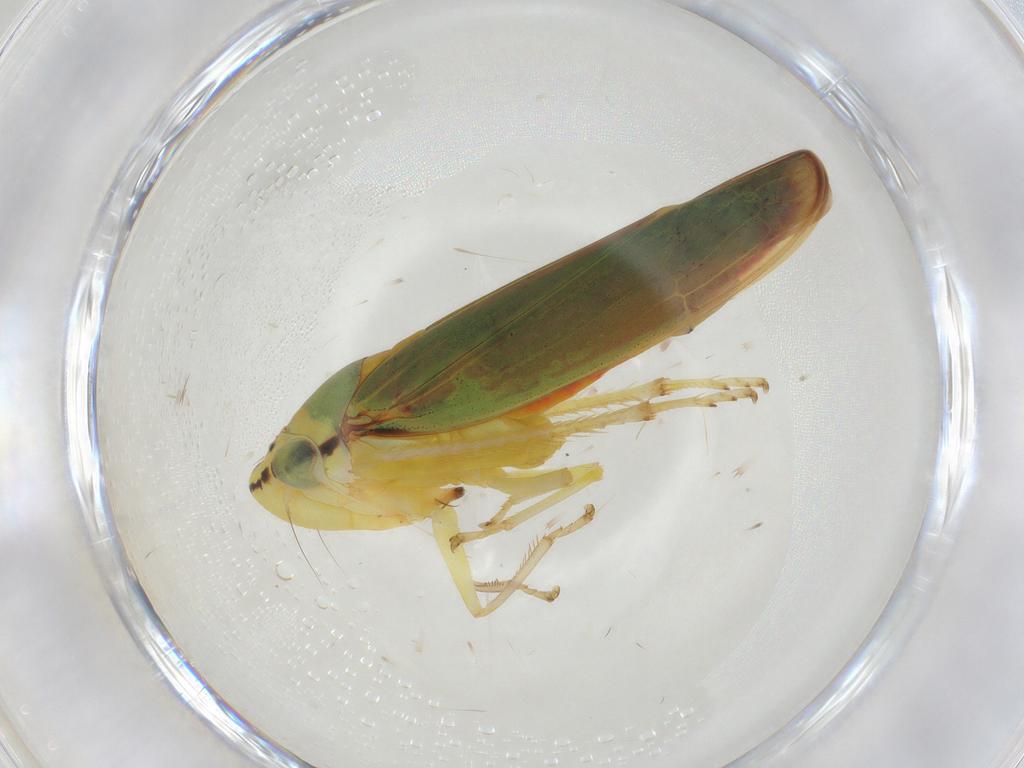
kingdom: Animalia
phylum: Arthropoda
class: Insecta
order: Hemiptera
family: Cicadellidae
